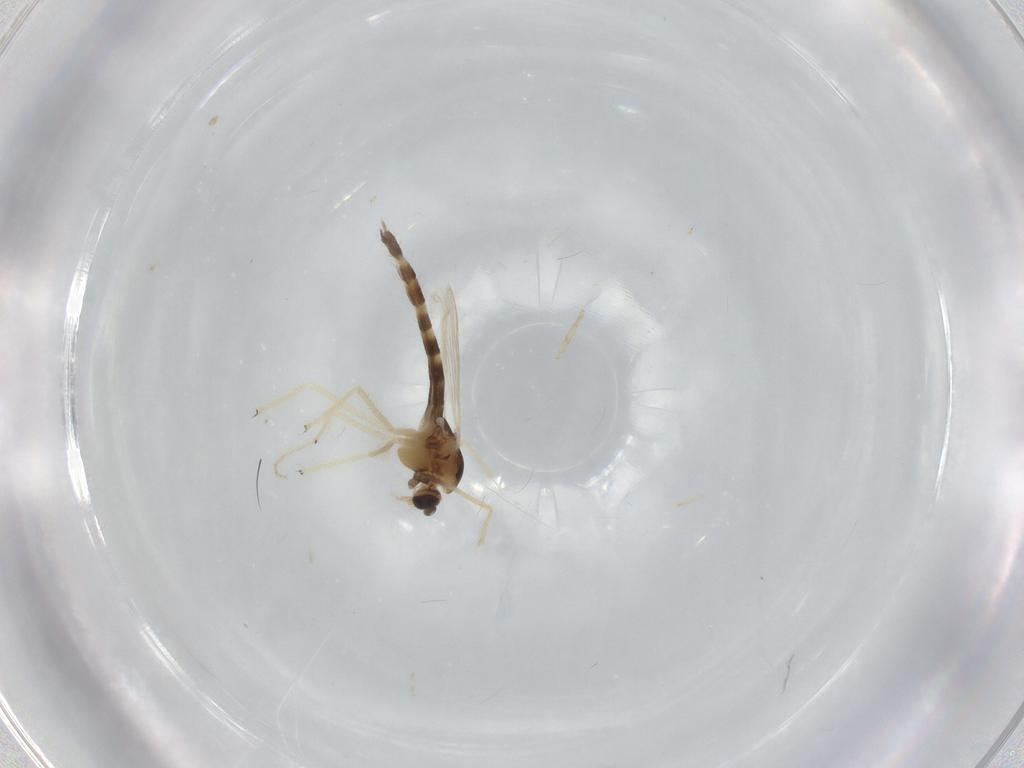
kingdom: Animalia
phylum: Arthropoda
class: Insecta
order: Diptera
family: Chironomidae
